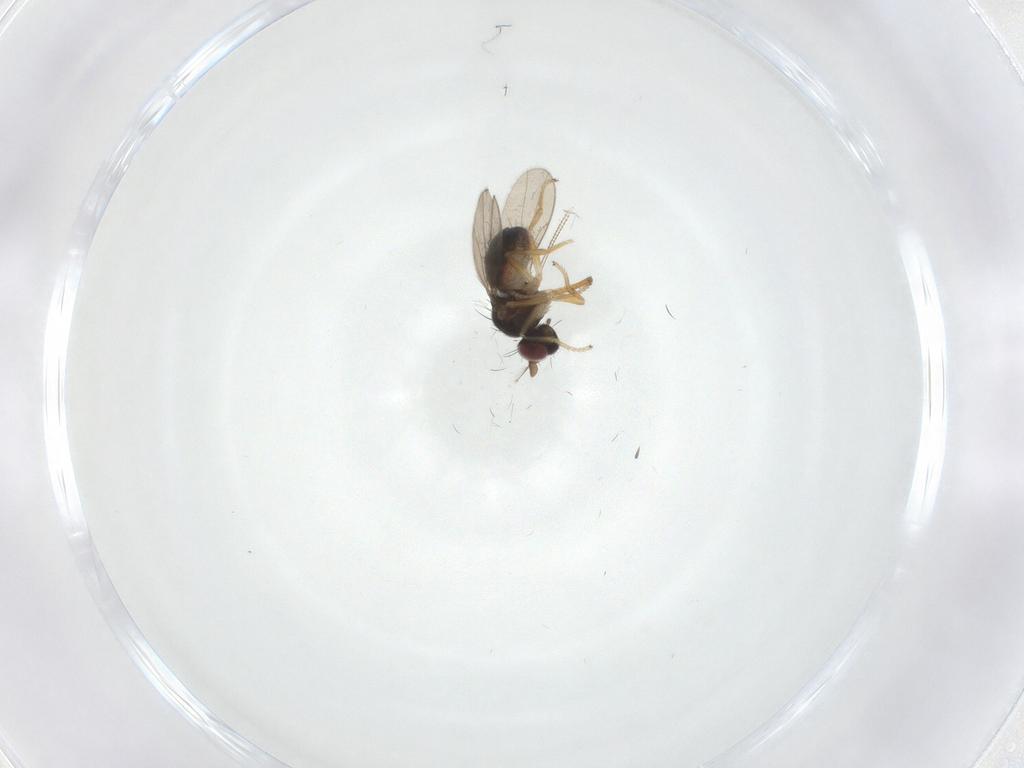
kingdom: Animalia
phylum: Arthropoda
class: Insecta
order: Diptera
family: Ephydridae
